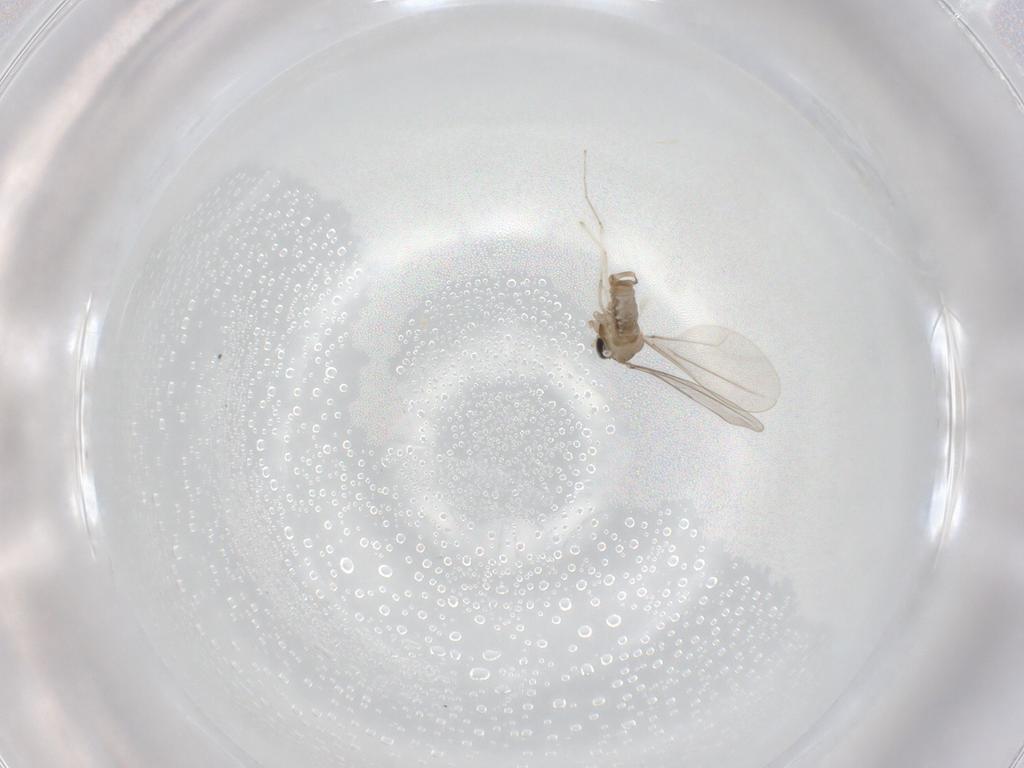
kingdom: Animalia
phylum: Arthropoda
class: Insecta
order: Diptera
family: Cecidomyiidae
